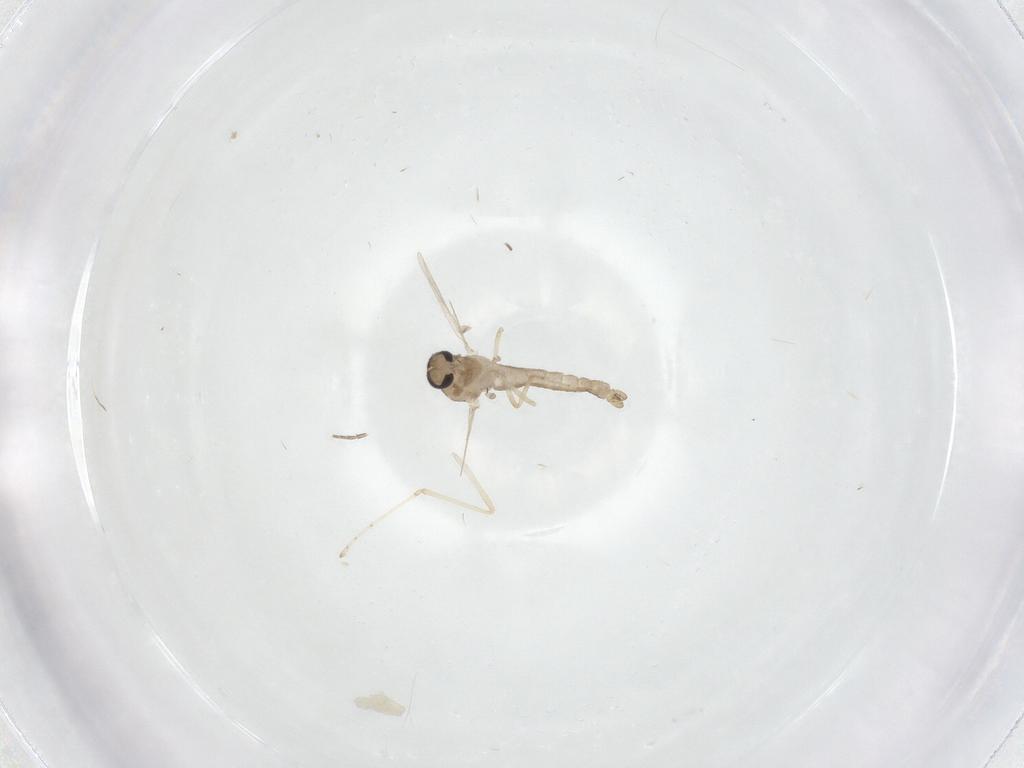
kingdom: Animalia
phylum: Arthropoda
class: Insecta
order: Diptera
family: Ceratopogonidae
